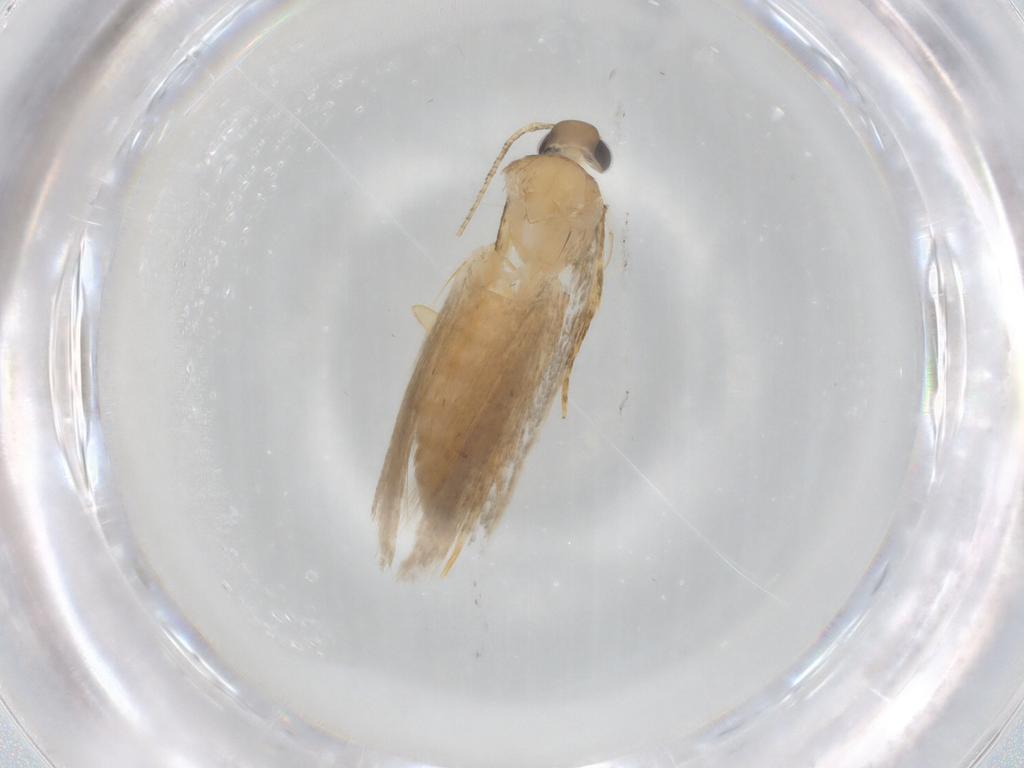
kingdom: Animalia
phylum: Arthropoda
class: Insecta
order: Lepidoptera
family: Autostichidae
